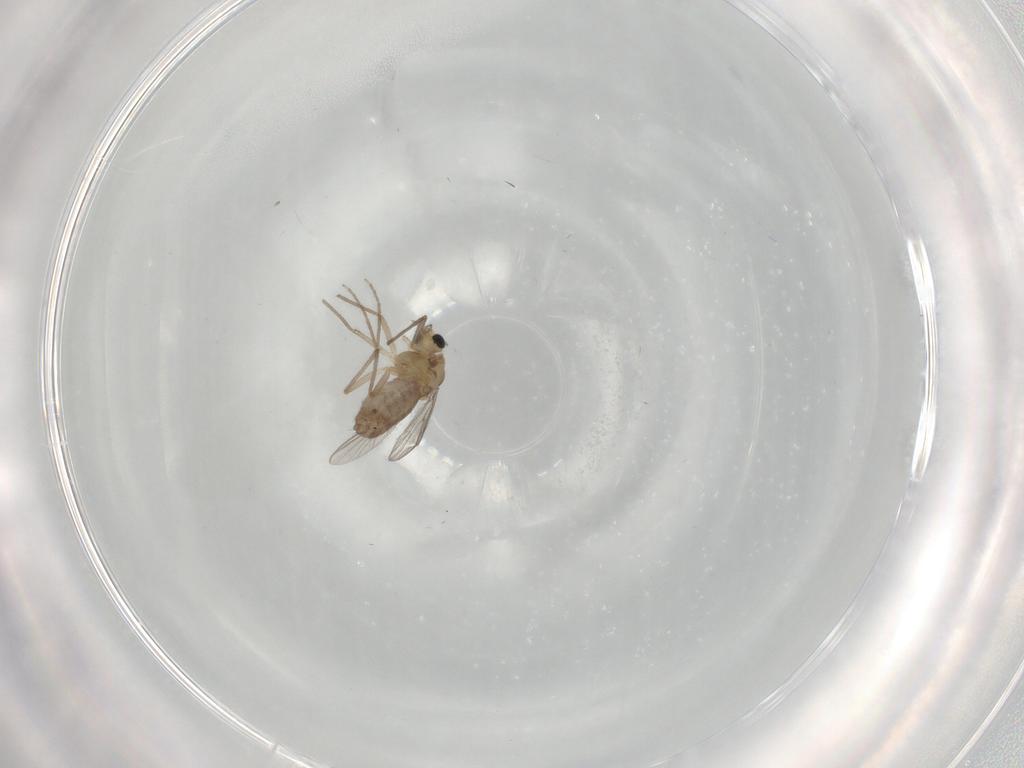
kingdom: Animalia
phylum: Arthropoda
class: Insecta
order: Diptera
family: Chironomidae
